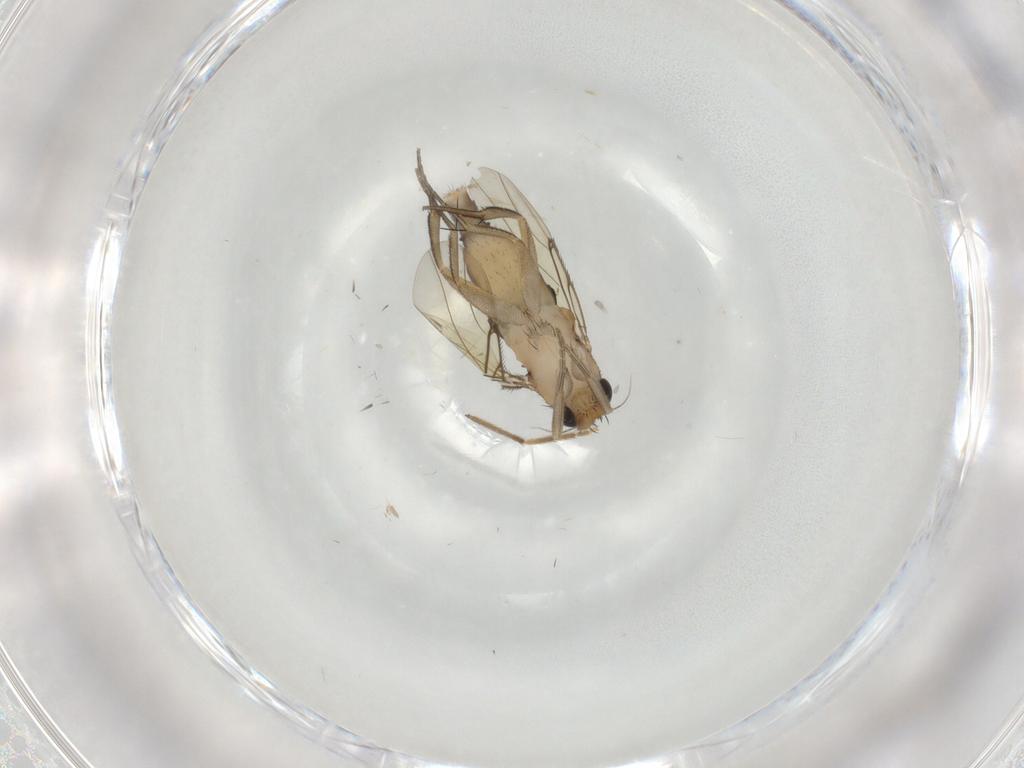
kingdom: Animalia
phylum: Arthropoda
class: Insecta
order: Diptera
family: Phoridae
